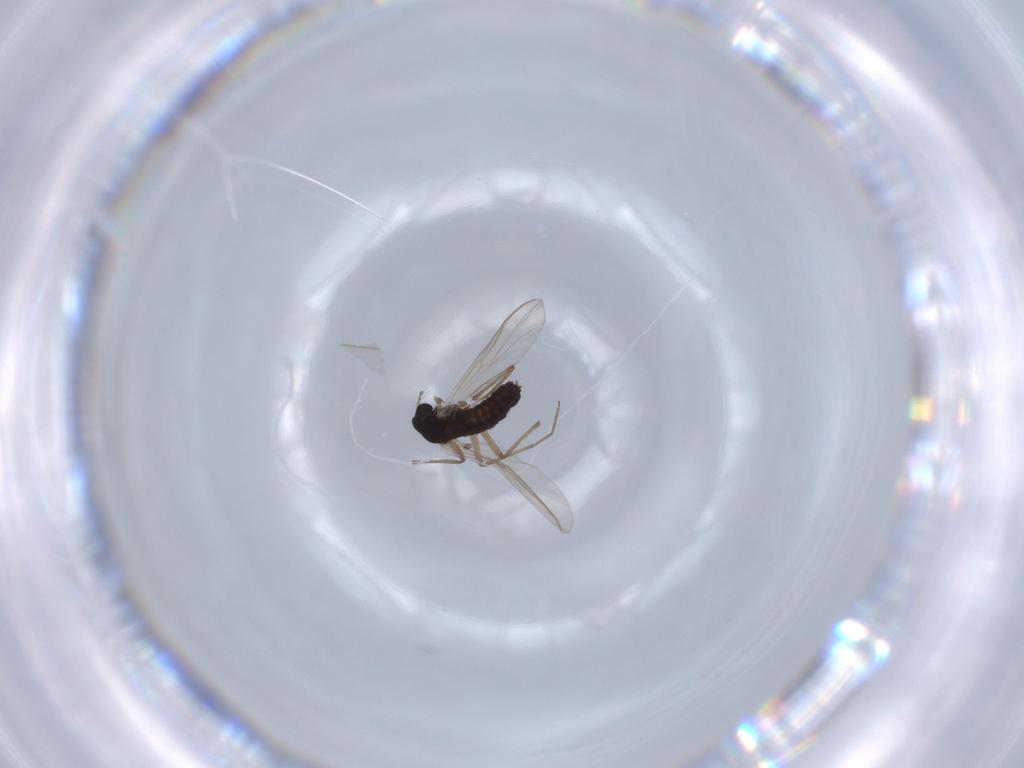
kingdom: Animalia
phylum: Arthropoda
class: Insecta
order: Diptera
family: Chironomidae
